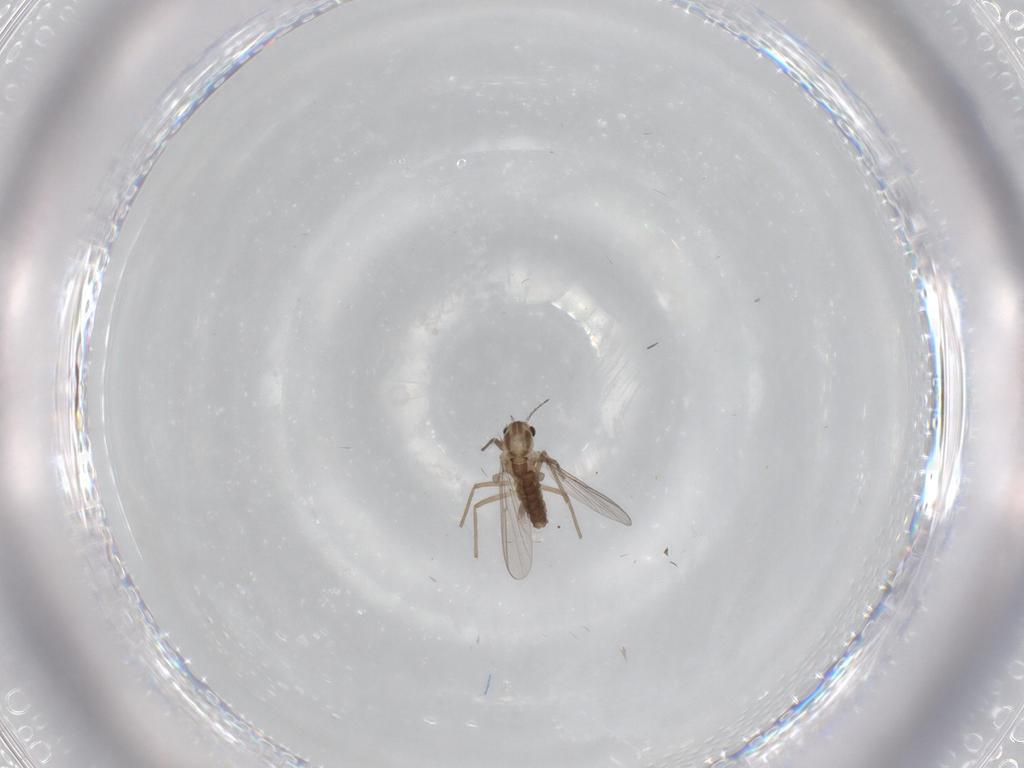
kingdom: Animalia
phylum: Arthropoda
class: Insecta
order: Diptera
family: Chironomidae
